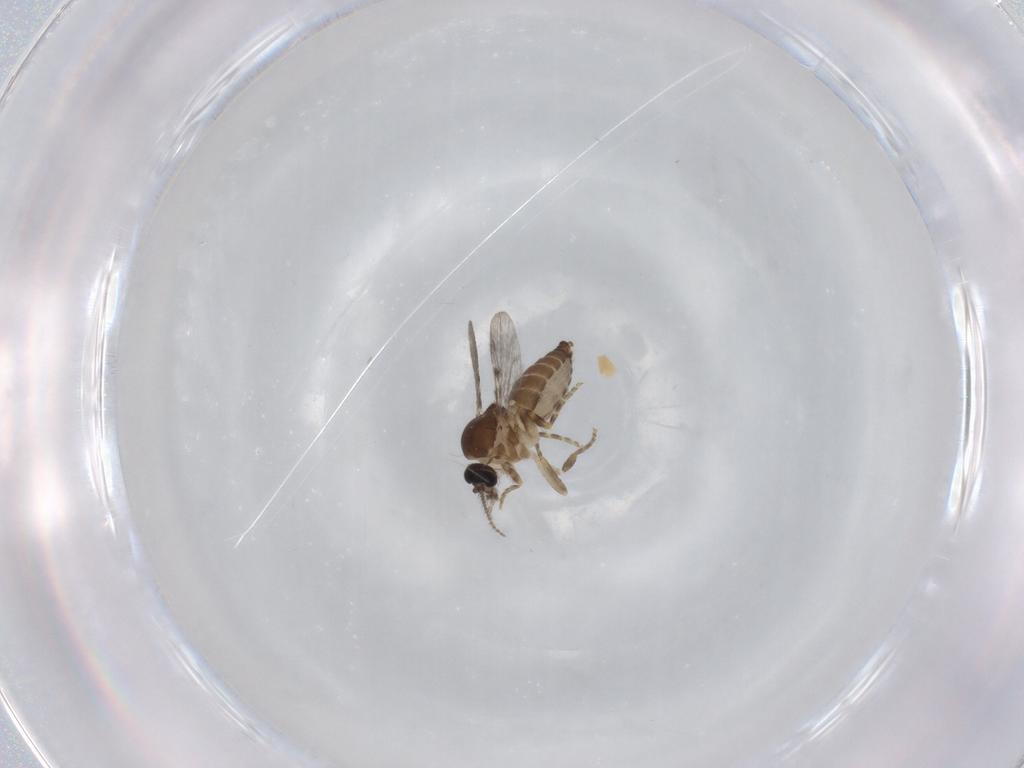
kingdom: Animalia
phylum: Arthropoda
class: Insecta
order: Diptera
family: Ceratopogonidae
